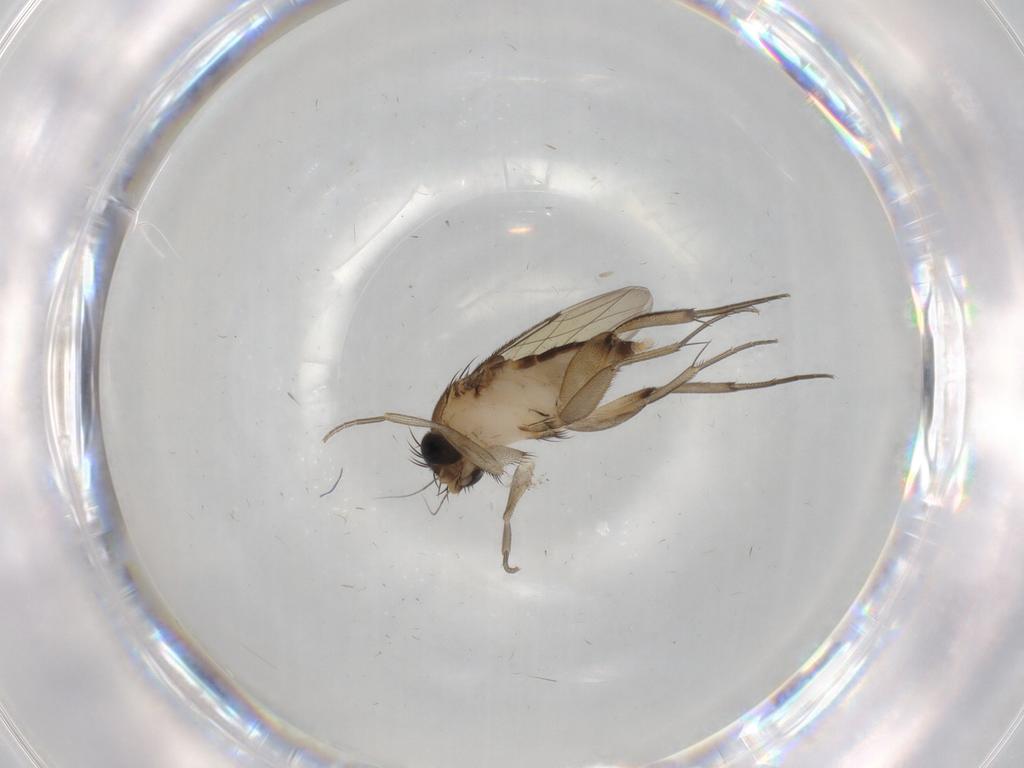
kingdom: Animalia
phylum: Arthropoda
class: Insecta
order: Diptera
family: Phoridae
